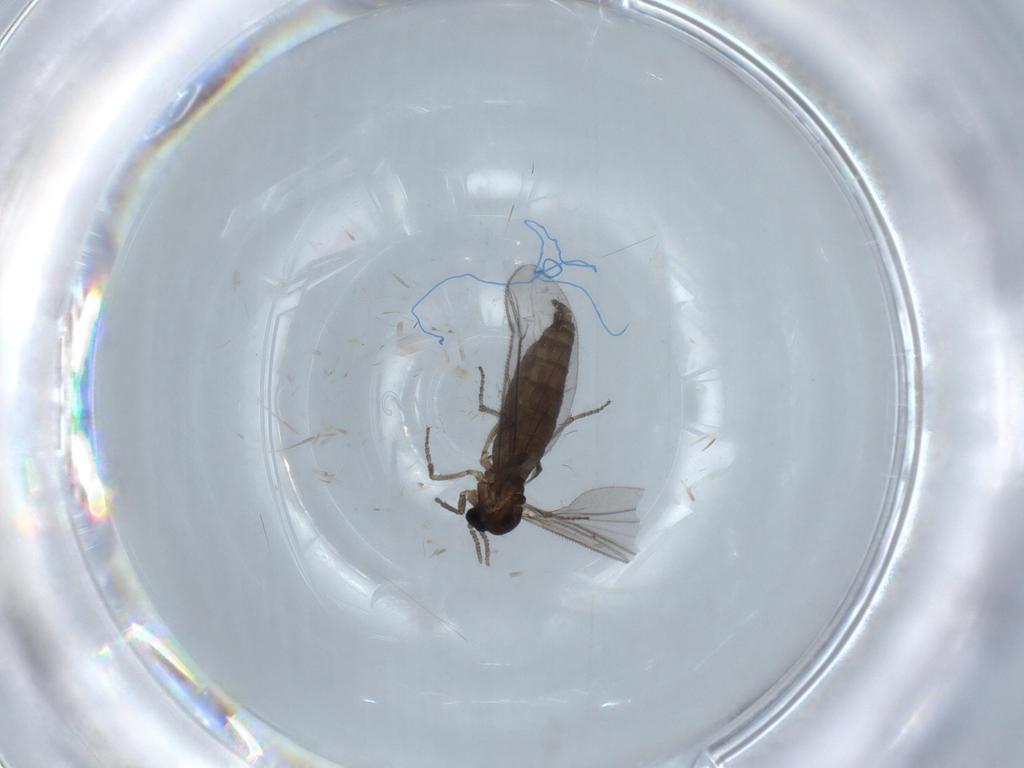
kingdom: Animalia
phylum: Arthropoda
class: Insecta
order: Diptera
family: Sciaridae
